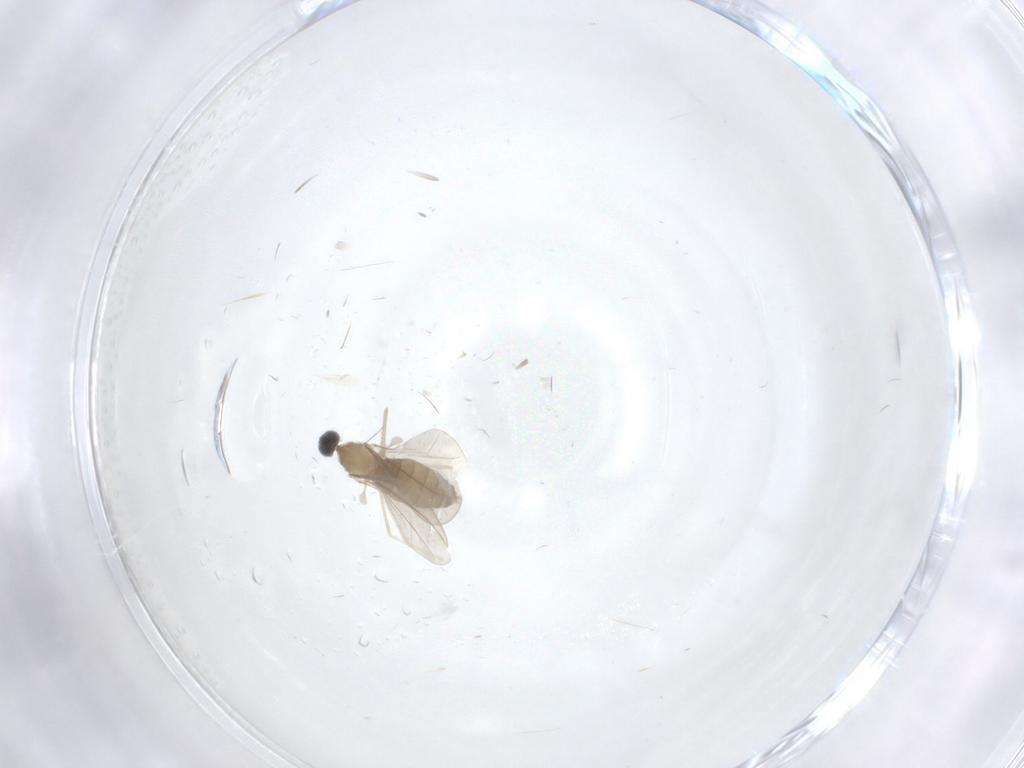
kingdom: Animalia
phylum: Arthropoda
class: Insecta
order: Diptera
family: Cecidomyiidae
